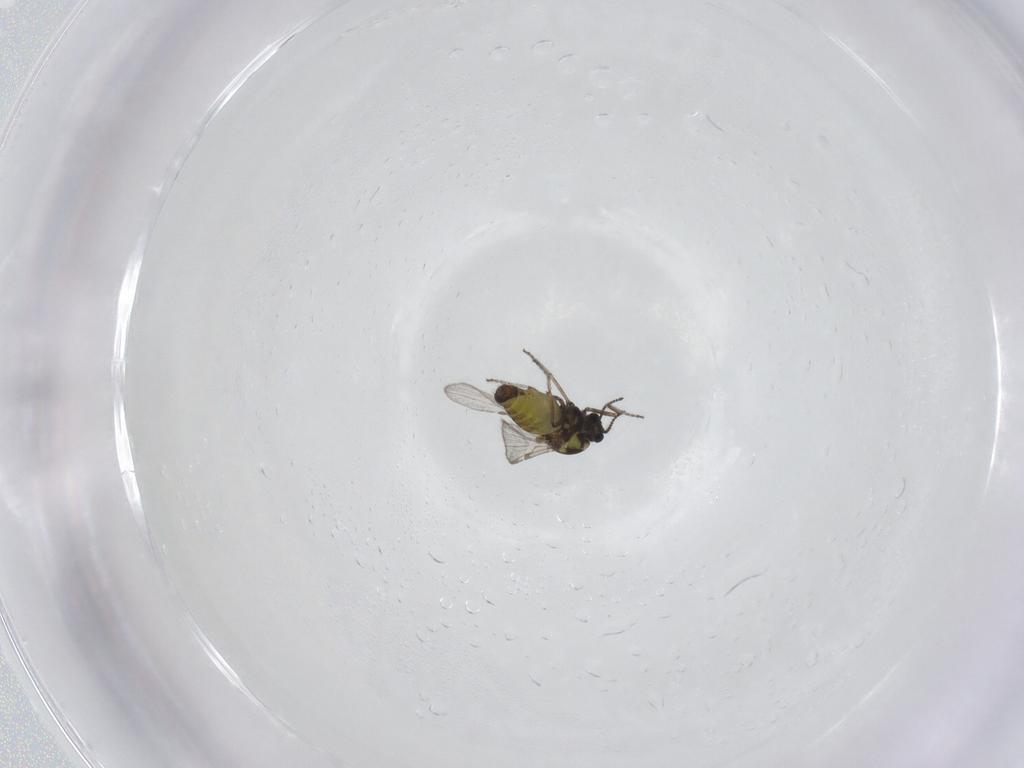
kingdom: Animalia
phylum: Arthropoda
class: Insecta
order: Diptera
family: Ceratopogonidae
